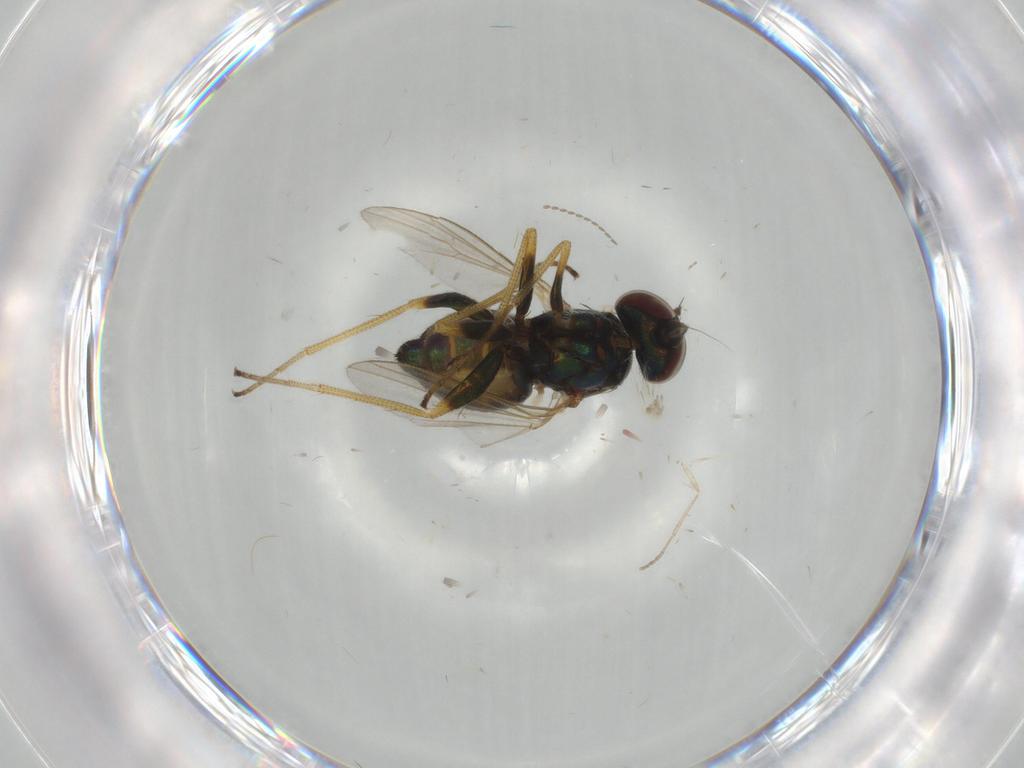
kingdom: Animalia
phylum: Arthropoda
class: Insecta
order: Diptera
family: Dolichopodidae
